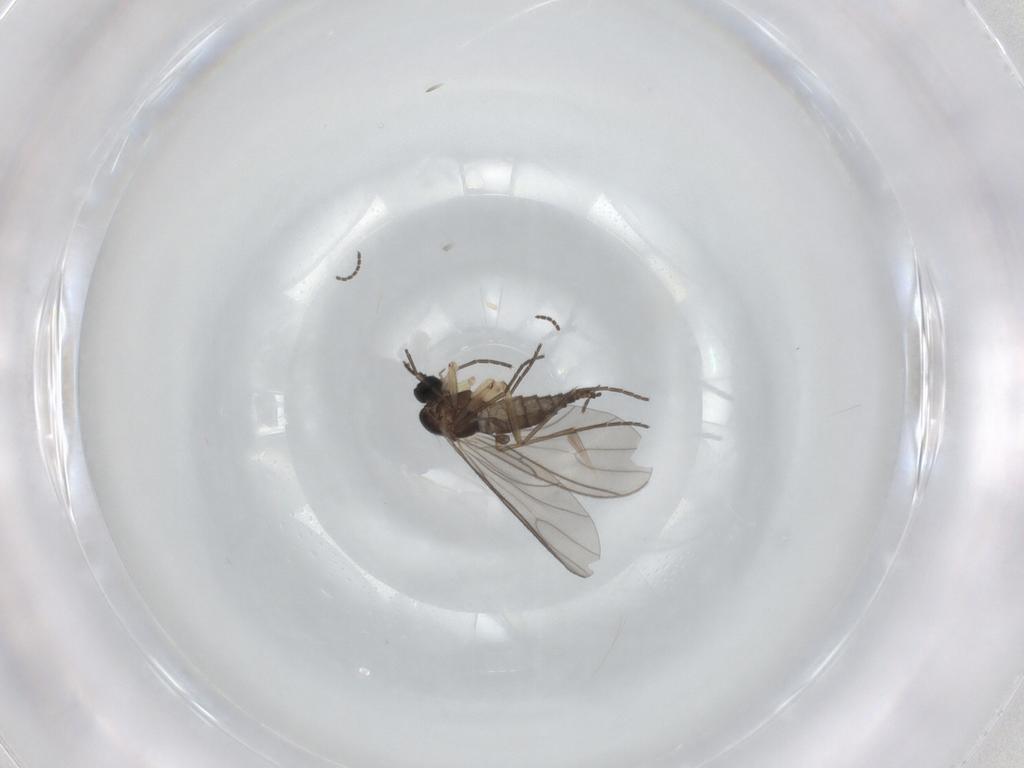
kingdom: Animalia
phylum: Arthropoda
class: Insecta
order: Diptera
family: Sciaridae
